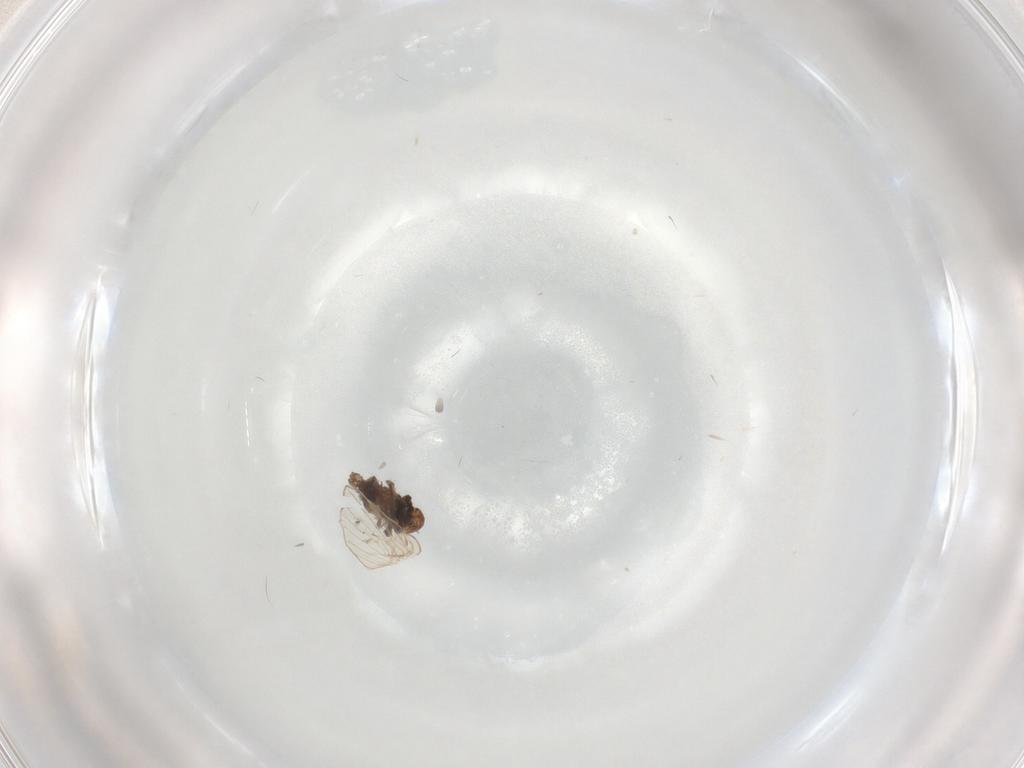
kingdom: Animalia
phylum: Arthropoda
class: Insecta
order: Diptera
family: Psychodidae
